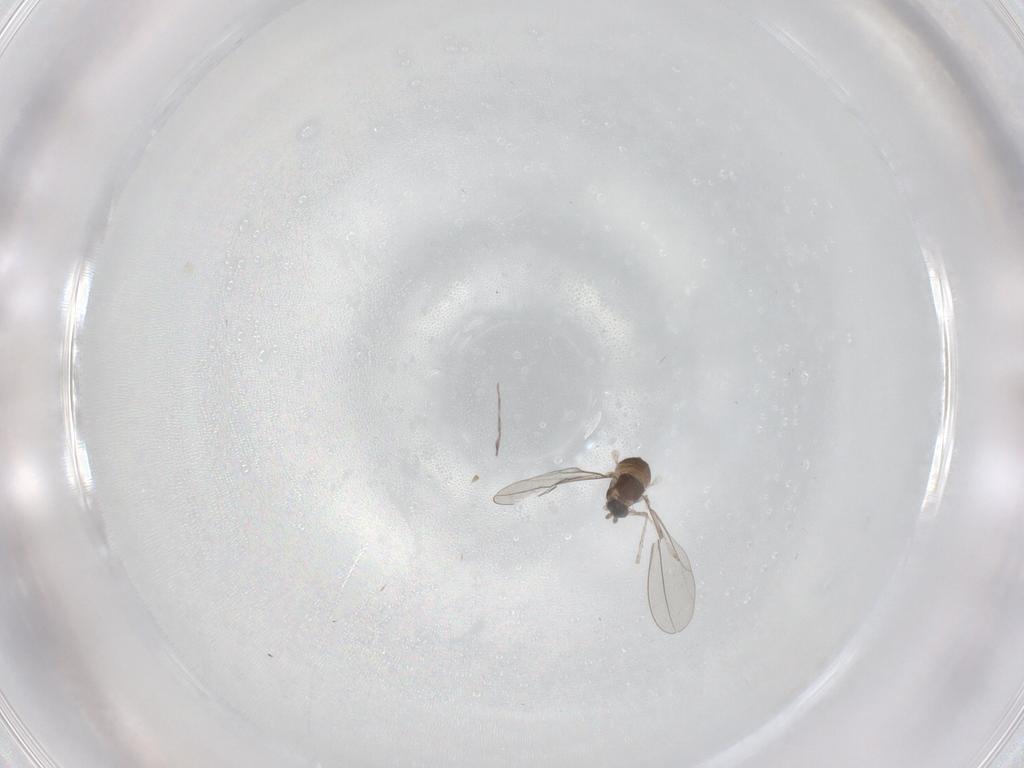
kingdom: Animalia
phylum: Arthropoda
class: Insecta
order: Diptera
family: Cecidomyiidae
